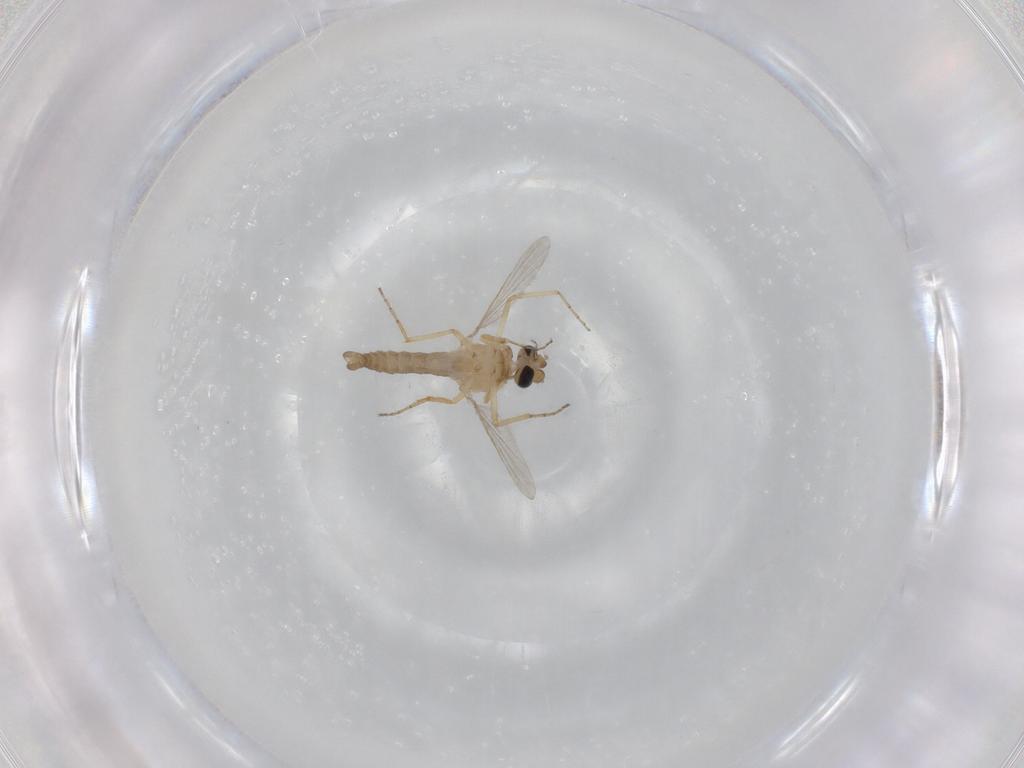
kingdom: Animalia
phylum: Arthropoda
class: Insecta
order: Diptera
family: Ceratopogonidae
